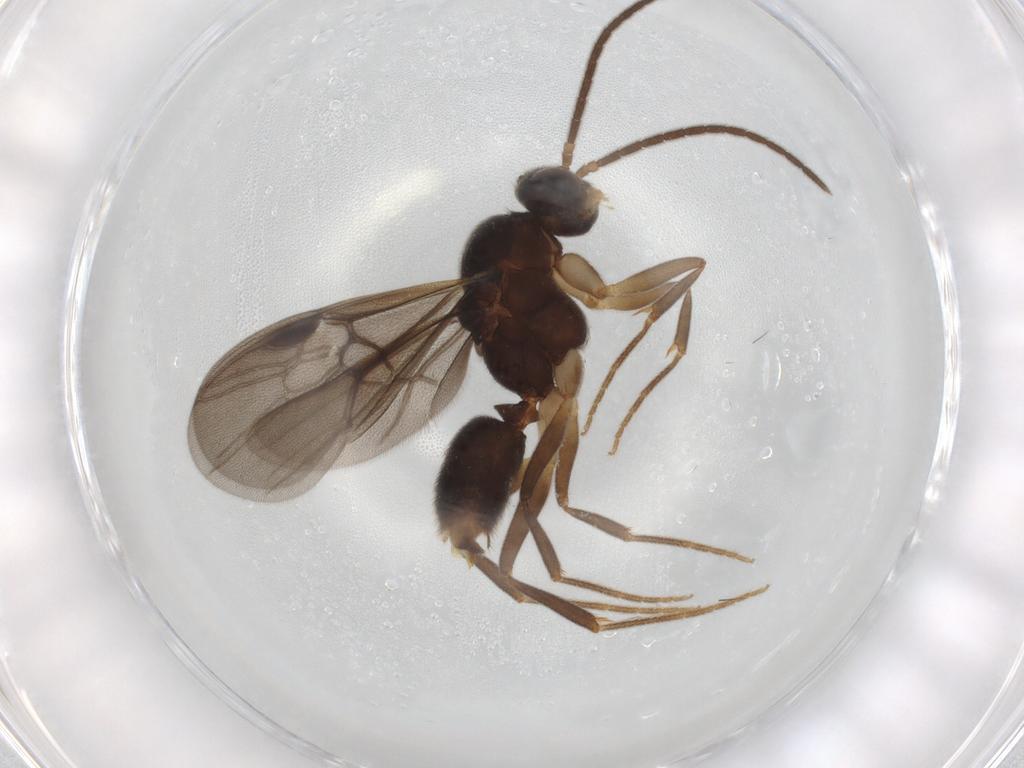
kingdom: Animalia
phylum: Arthropoda
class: Insecta
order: Hymenoptera
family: Formicidae
